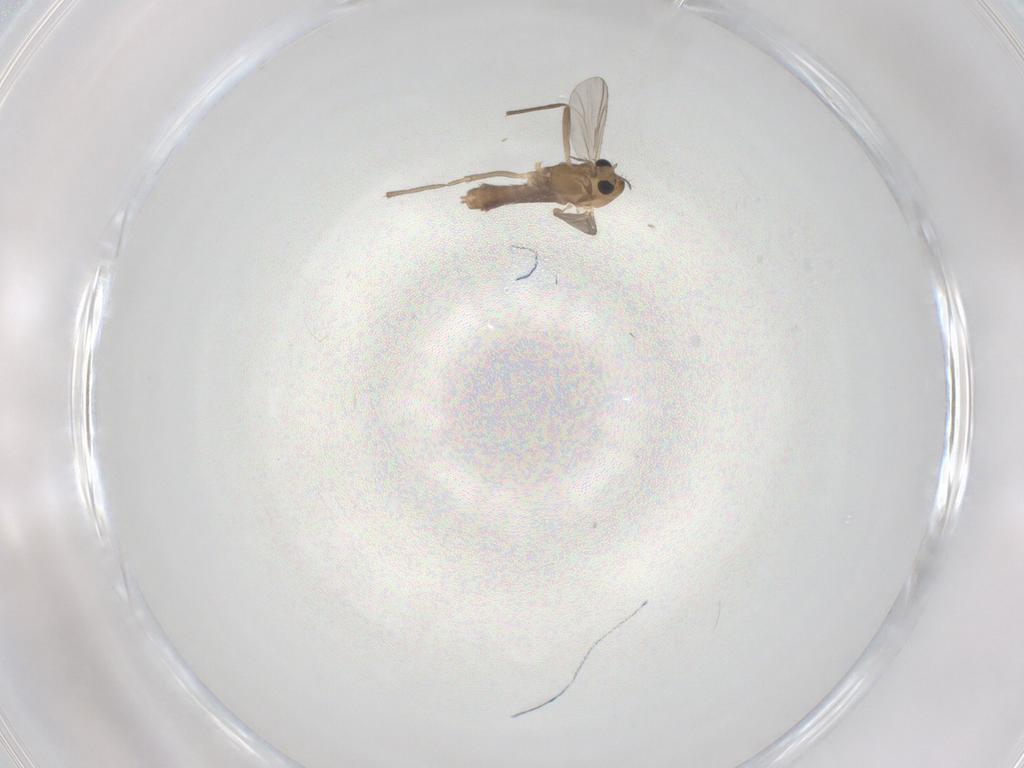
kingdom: Animalia
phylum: Arthropoda
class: Insecta
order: Diptera
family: Chironomidae
